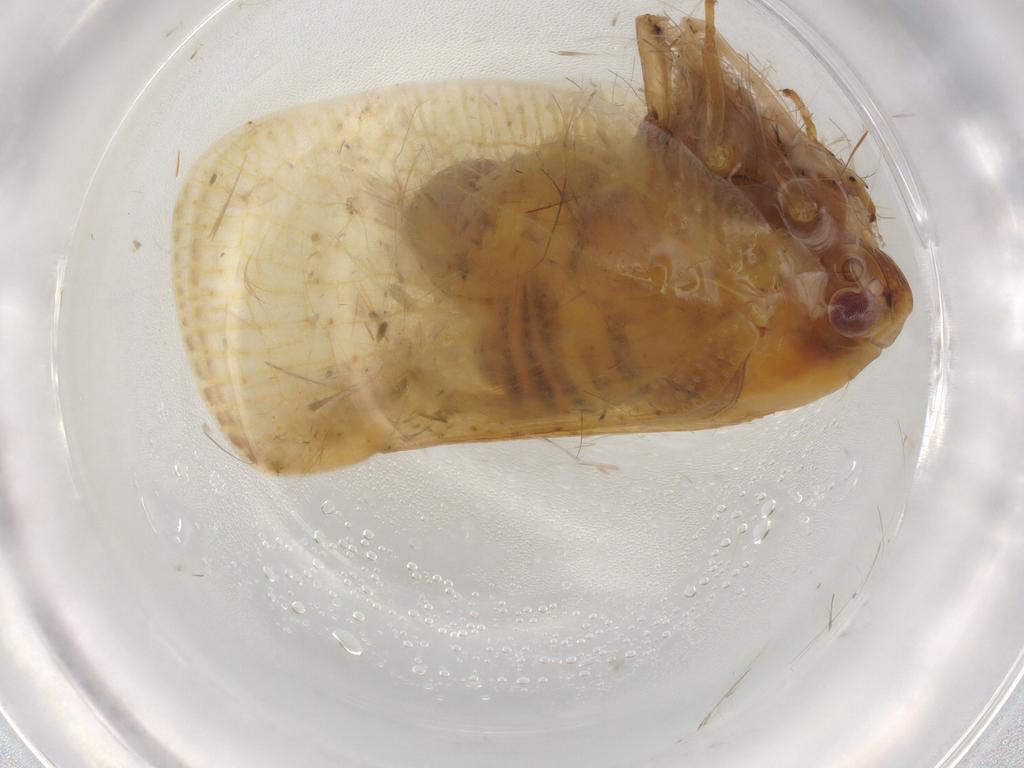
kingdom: Animalia
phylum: Arthropoda
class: Insecta
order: Hemiptera
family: Flatidae
